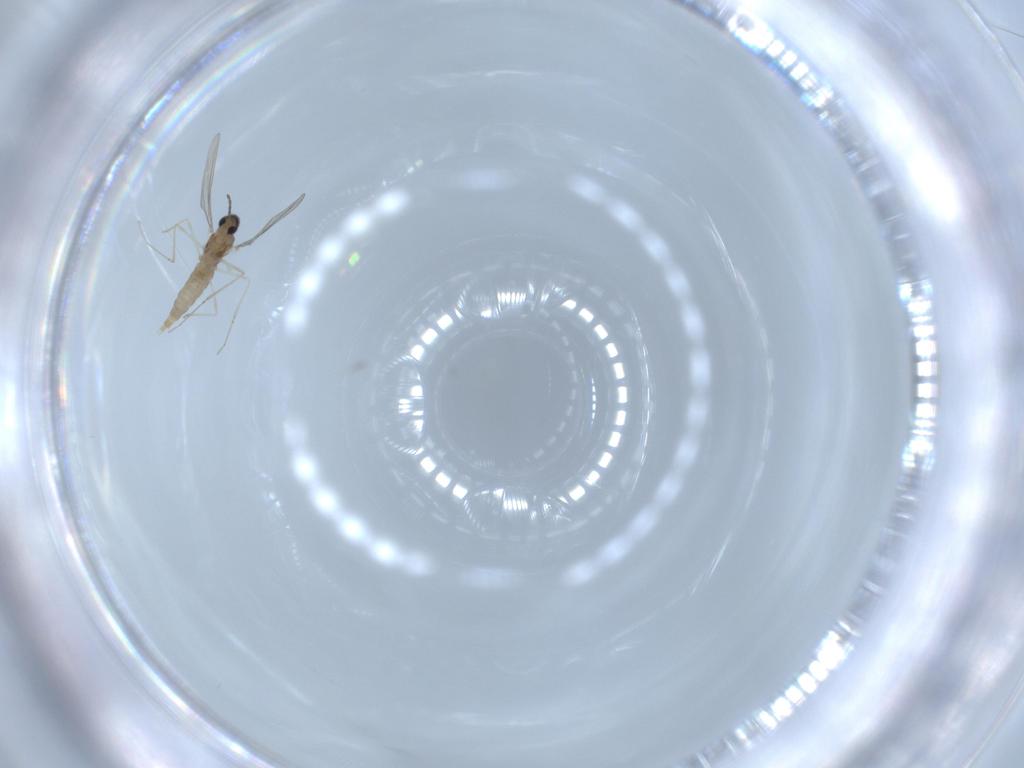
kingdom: Animalia
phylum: Arthropoda
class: Insecta
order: Diptera
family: Cecidomyiidae
